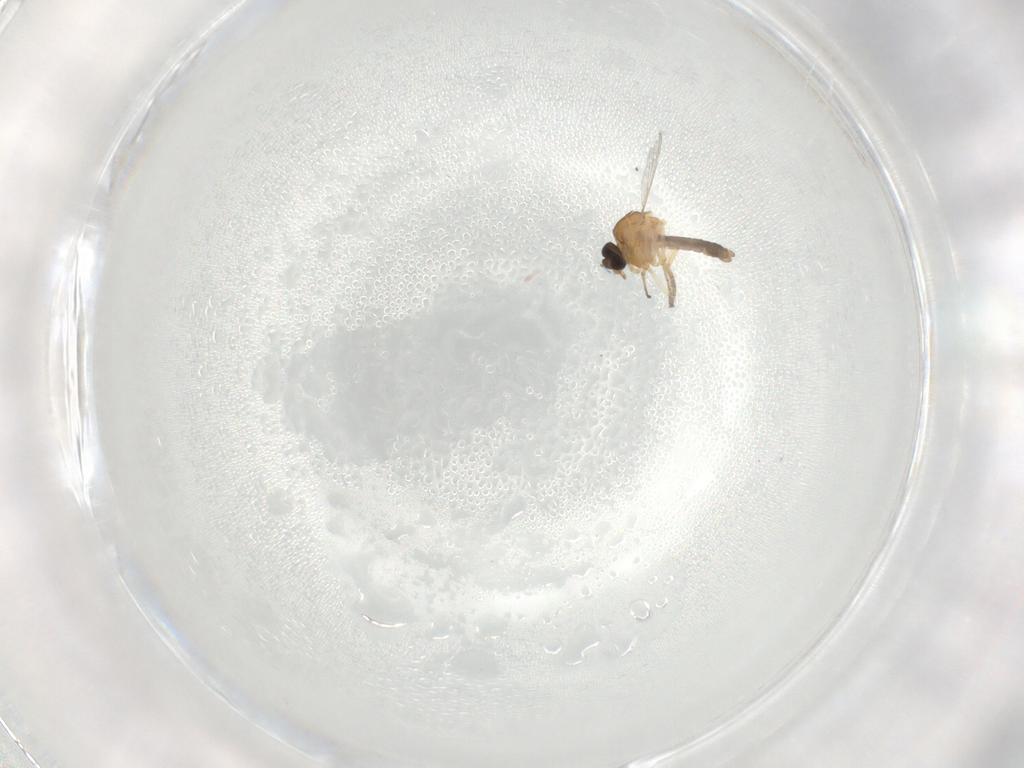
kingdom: Animalia
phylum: Arthropoda
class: Insecta
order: Diptera
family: Ceratopogonidae
